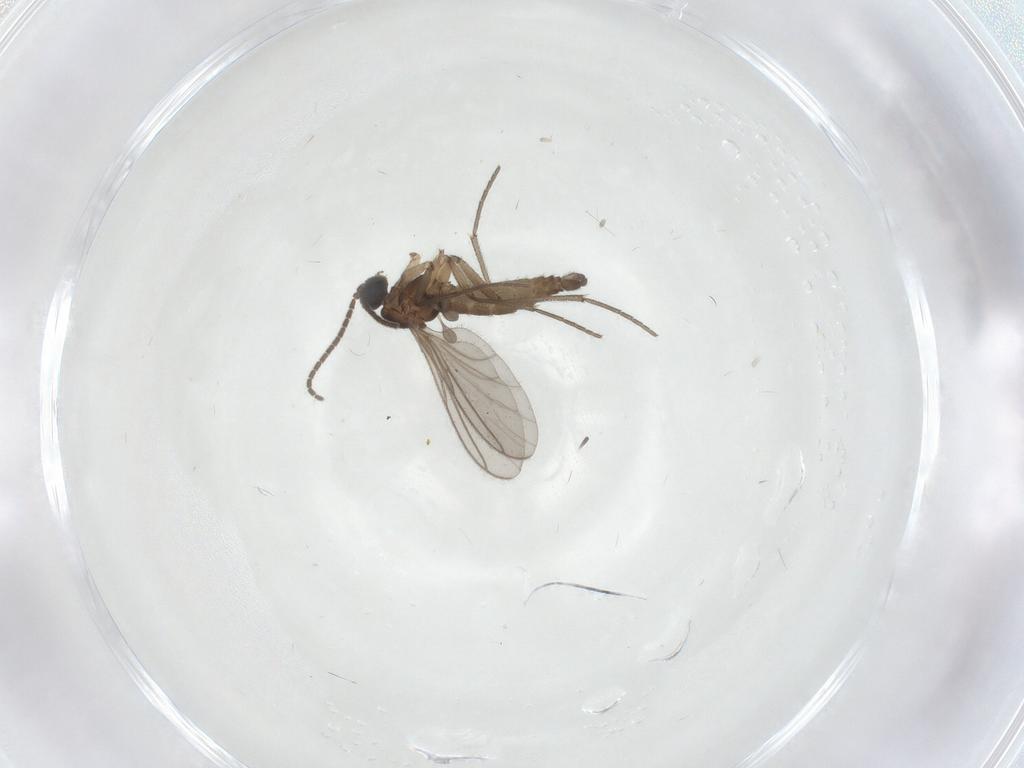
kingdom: Animalia
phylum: Arthropoda
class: Insecta
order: Diptera
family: Sciaridae
